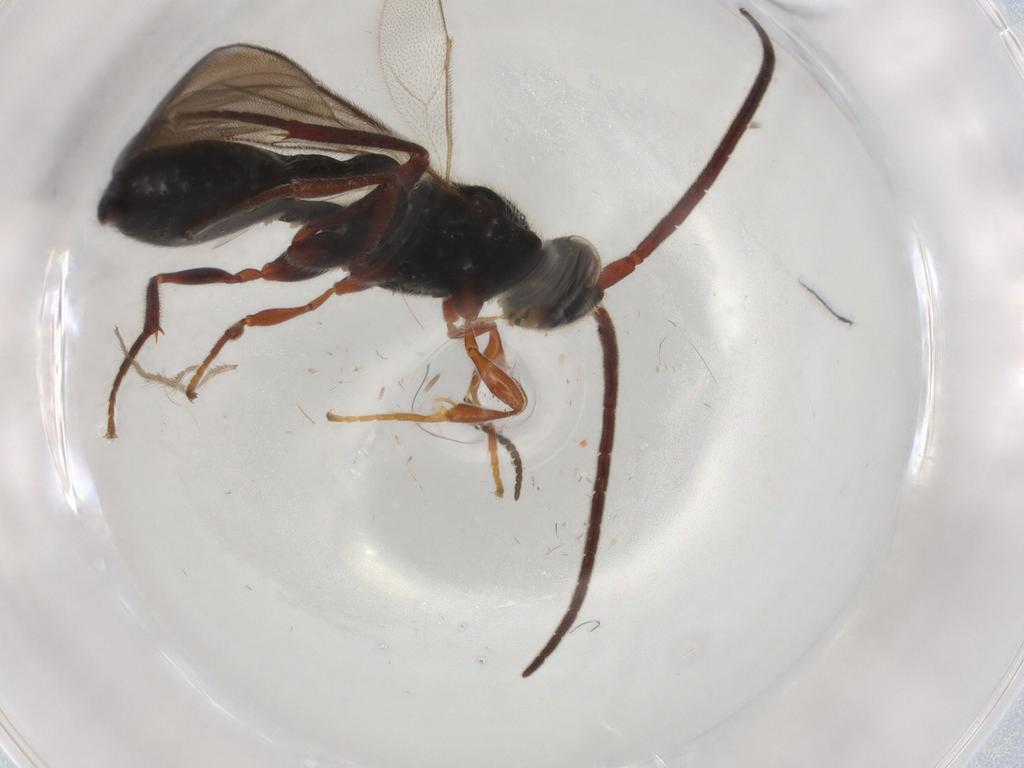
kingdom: Animalia
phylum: Arthropoda
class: Insecta
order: Hymenoptera
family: Ichneumonidae
